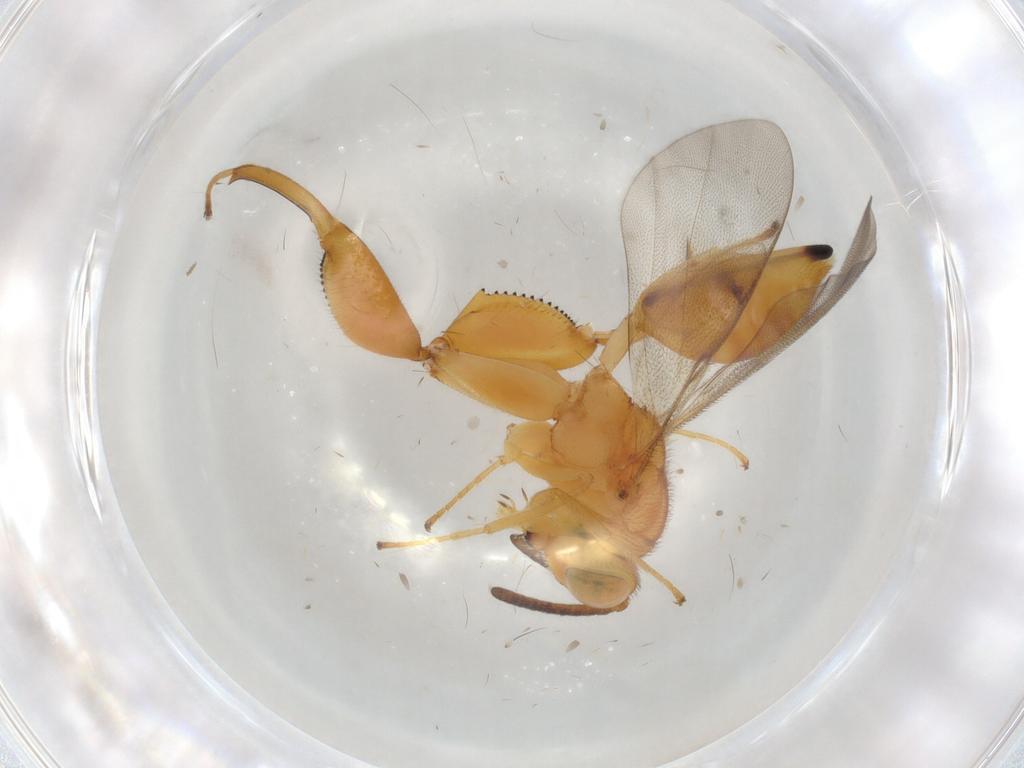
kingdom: Animalia
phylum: Arthropoda
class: Insecta
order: Hymenoptera
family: Chalcididae
